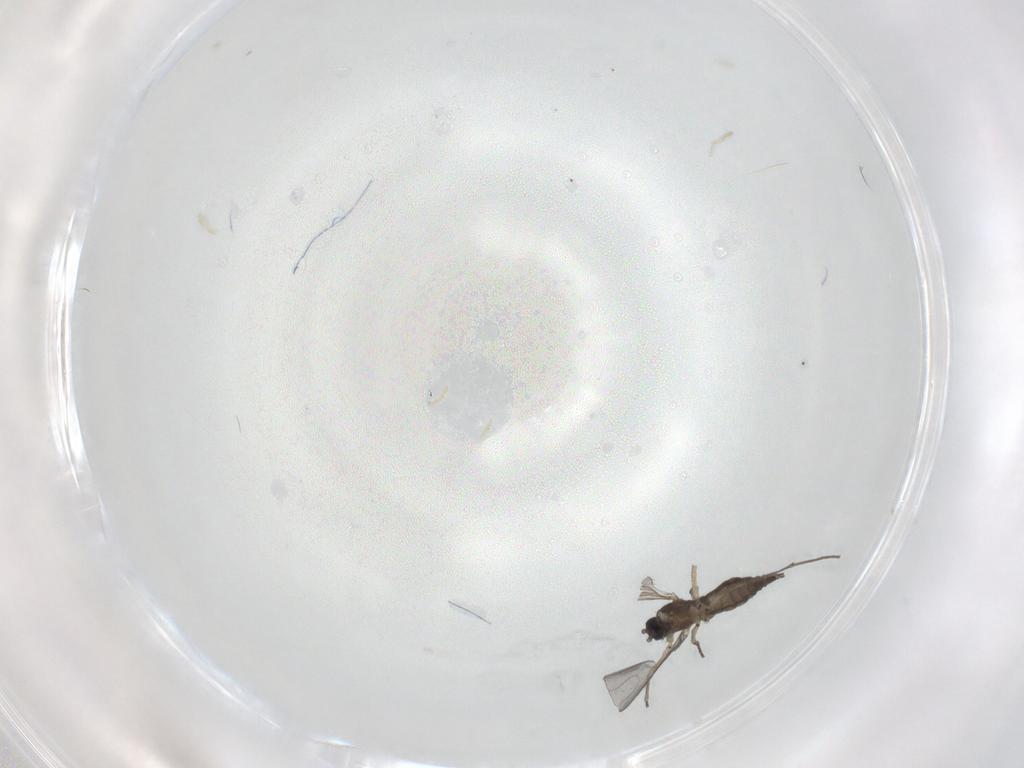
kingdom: Animalia
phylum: Arthropoda
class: Insecta
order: Diptera
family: Sciaridae
